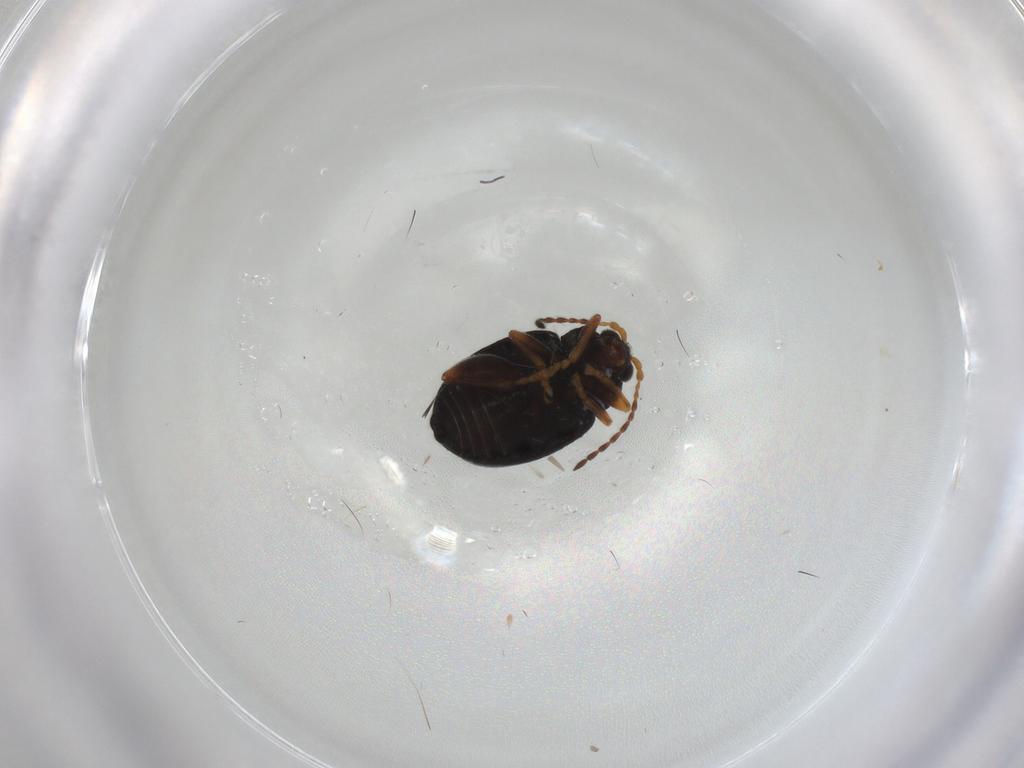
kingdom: Animalia
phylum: Arthropoda
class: Insecta
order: Coleoptera
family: Chrysomelidae
